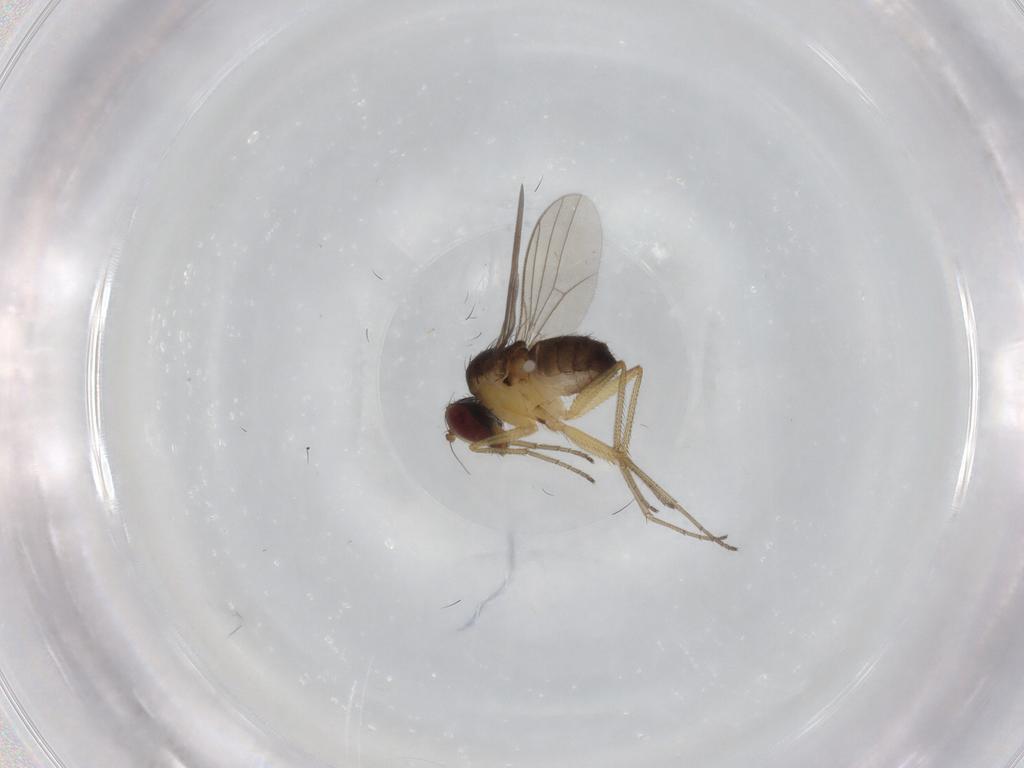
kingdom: Animalia
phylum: Arthropoda
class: Insecta
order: Diptera
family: Dolichopodidae
